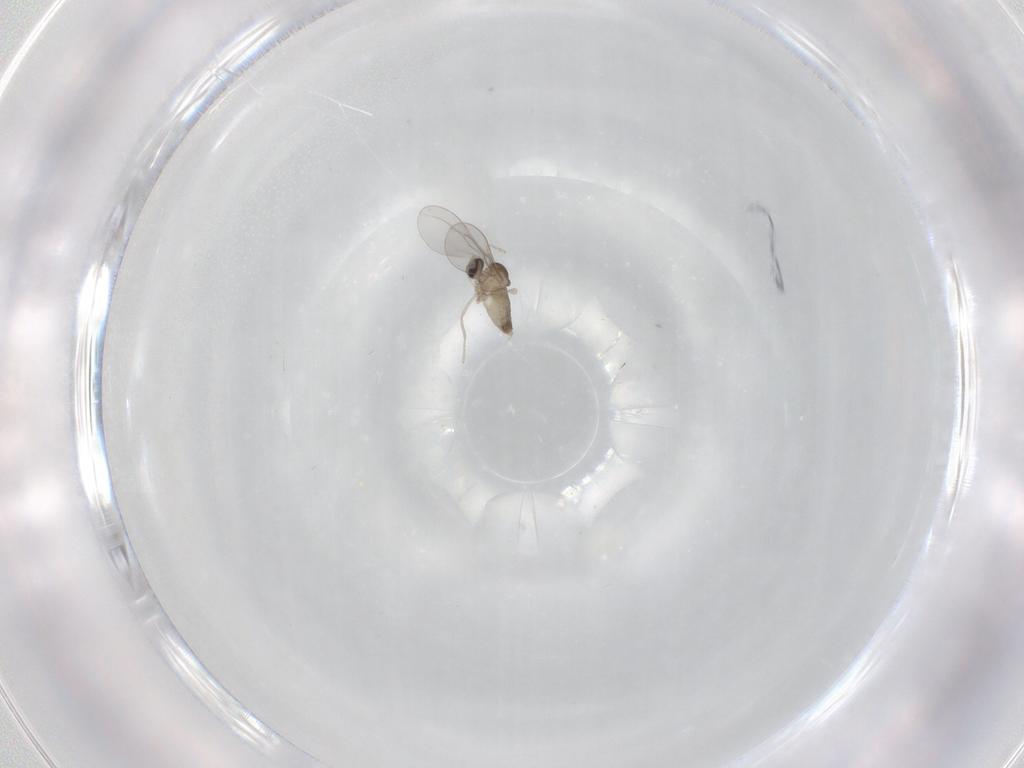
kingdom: Animalia
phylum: Arthropoda
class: Insecta
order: Diptera
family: Cecidomyiidae
